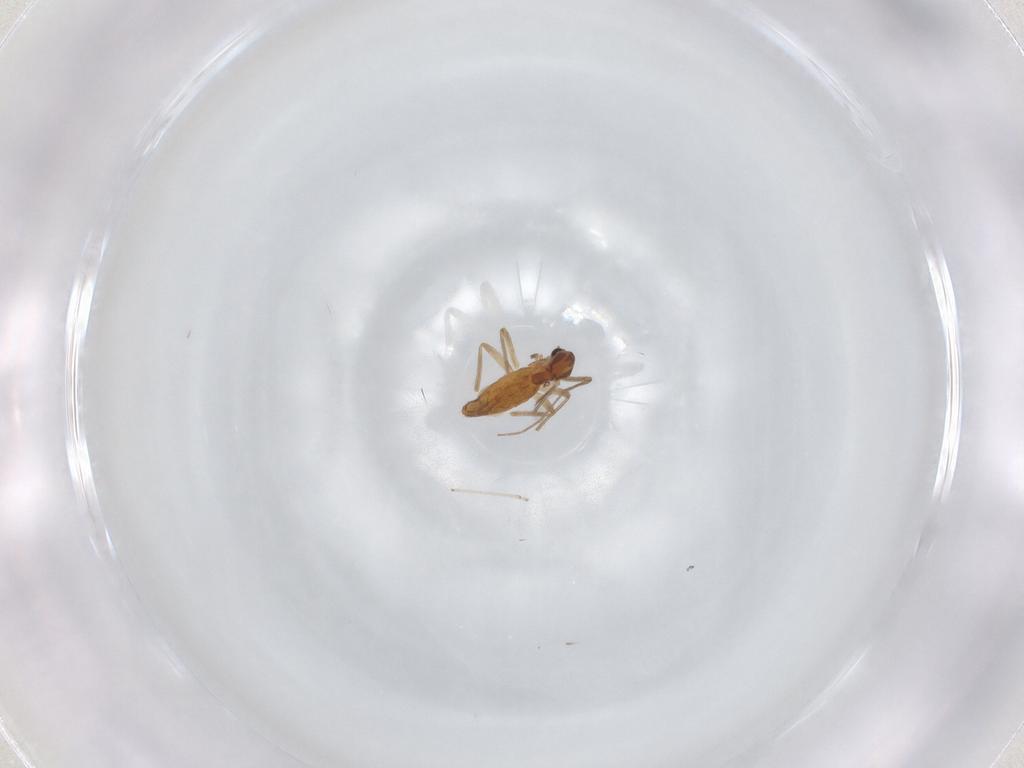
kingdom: Animalia
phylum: Arthropoda
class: Insecta
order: Diptera
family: Chironomidae
